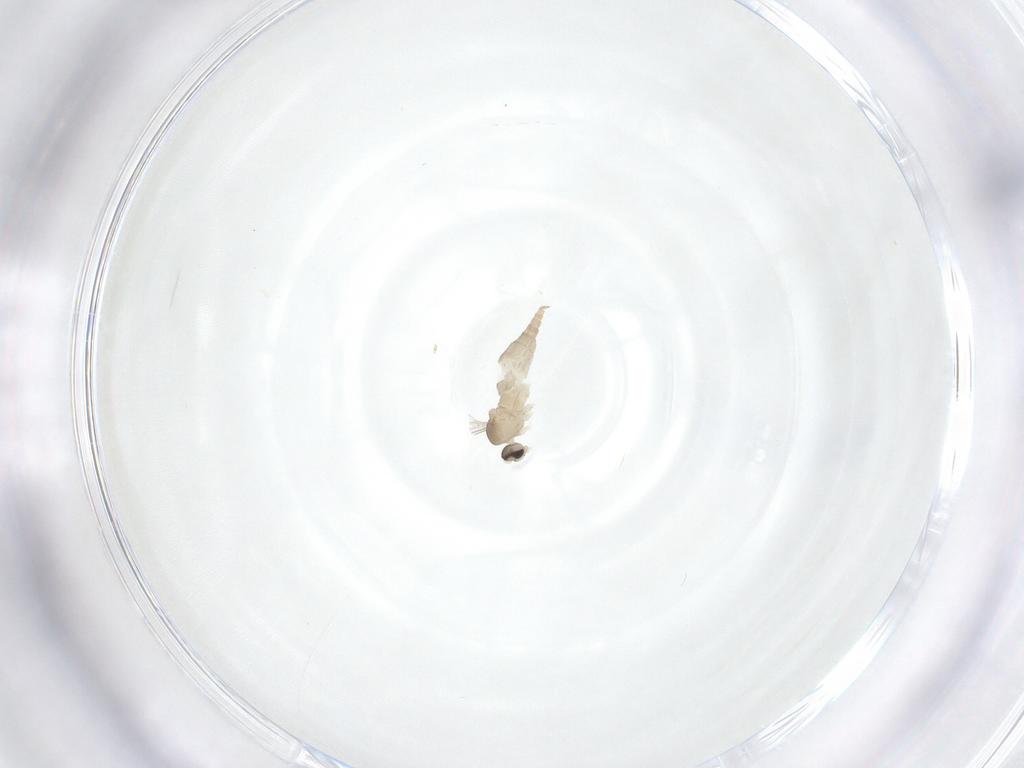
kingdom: Animalia
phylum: Arthropoda
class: Insecta
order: Diptera
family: Cecidomyiidae
